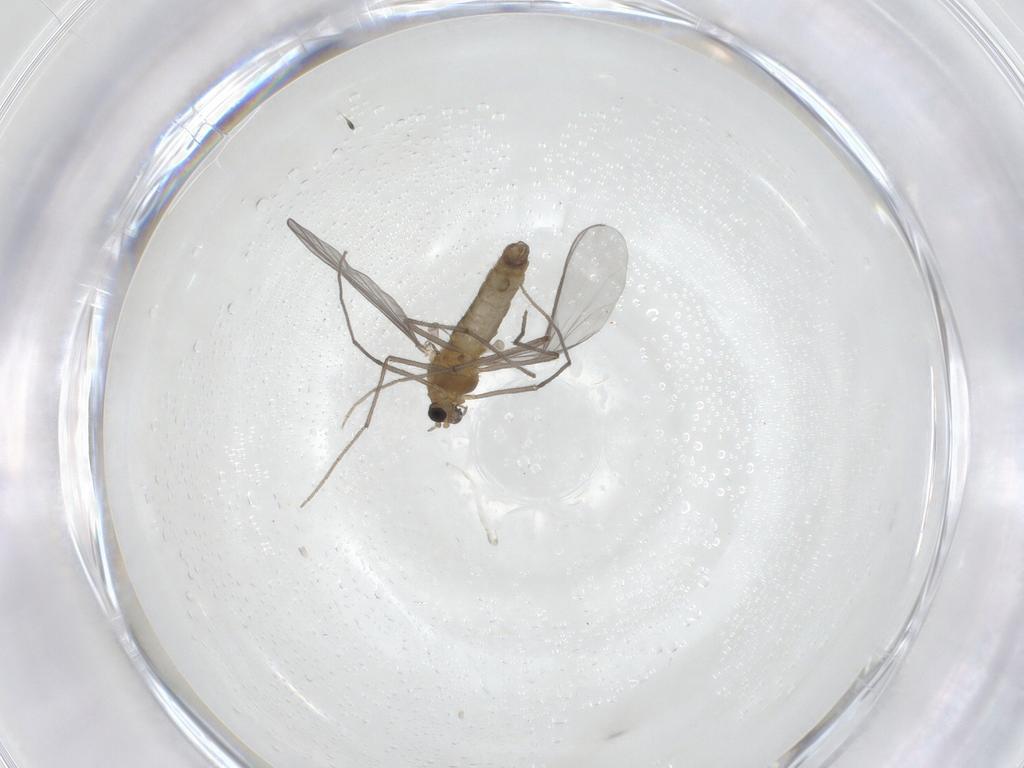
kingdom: Animalia
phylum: Arthropoda
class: Insecta
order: Diptera
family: Chironomidae
